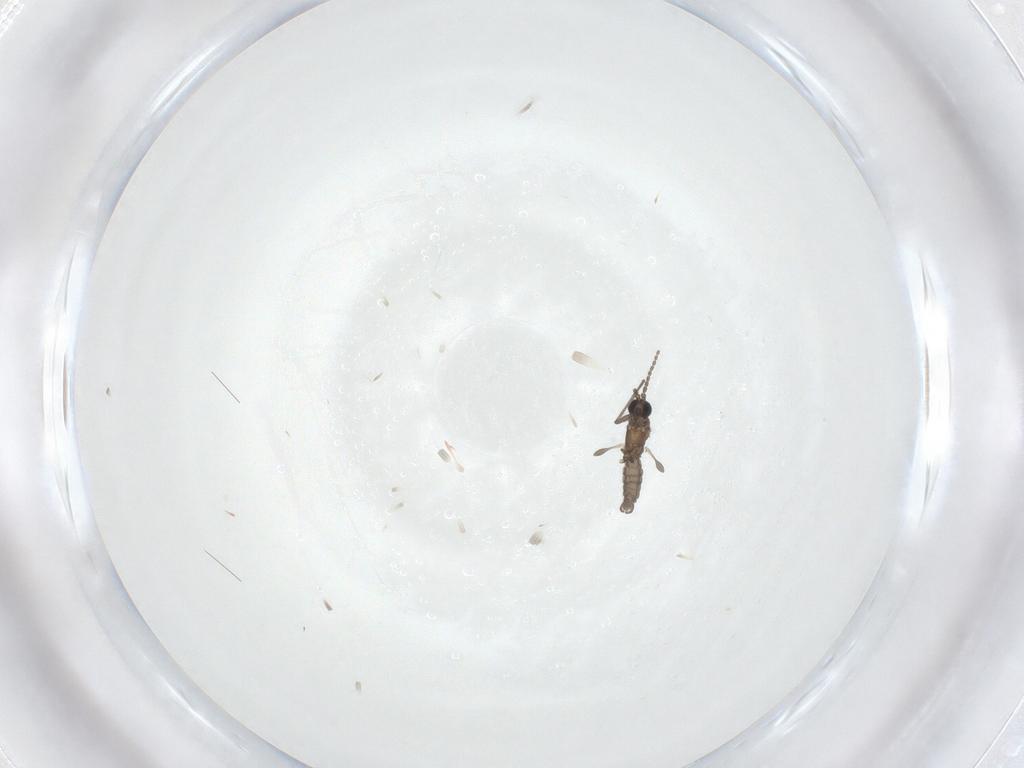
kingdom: Animalia
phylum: Arthropoda
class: Insecta
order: Diptera
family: Sciaridae
